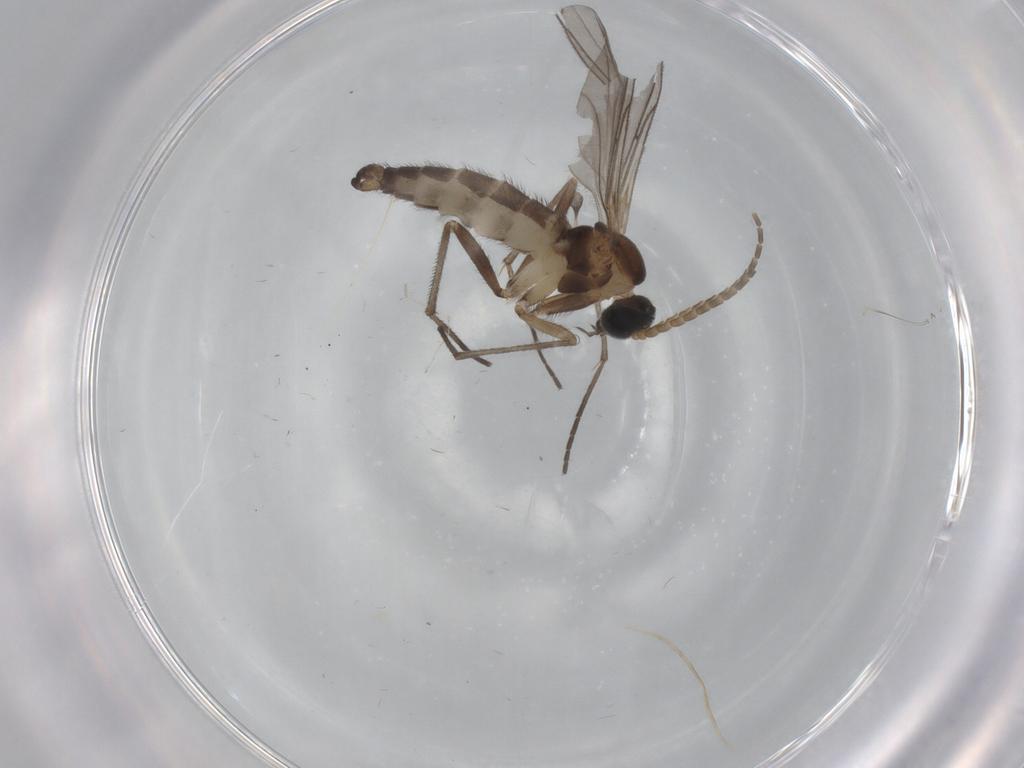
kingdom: Animalia
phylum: Arthropoda
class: Insecta
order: Diptera
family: Sciaridae
